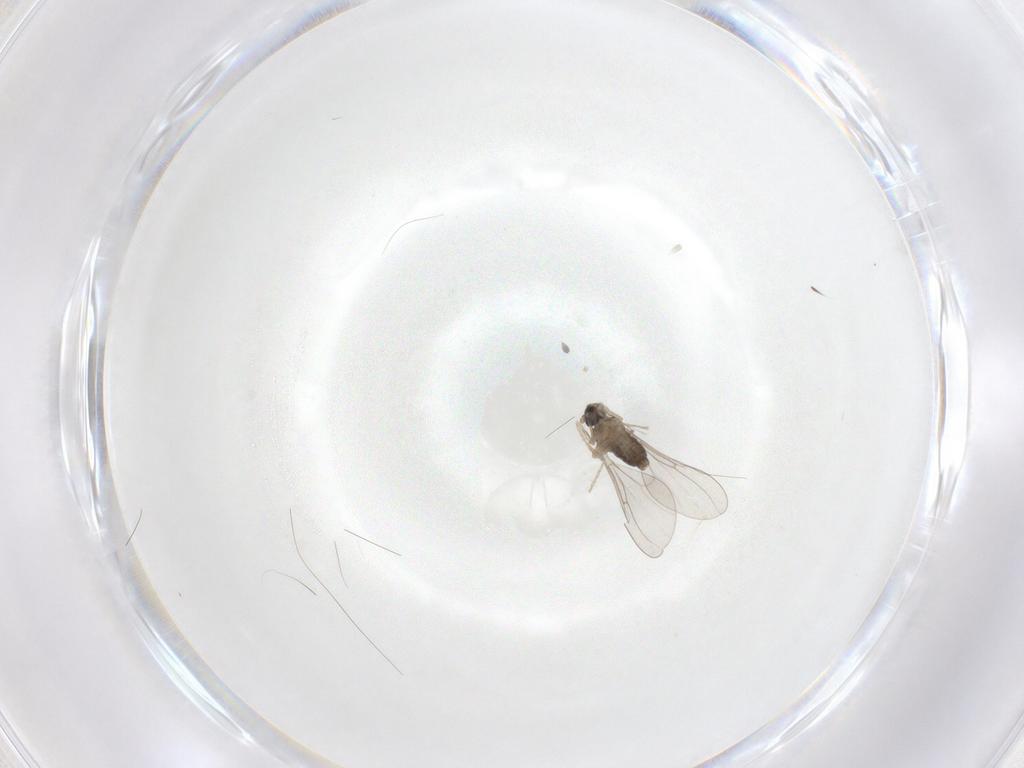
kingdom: Animalia
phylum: Arthropoda
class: Insecta
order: Diptera
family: Cecidomyiidae
